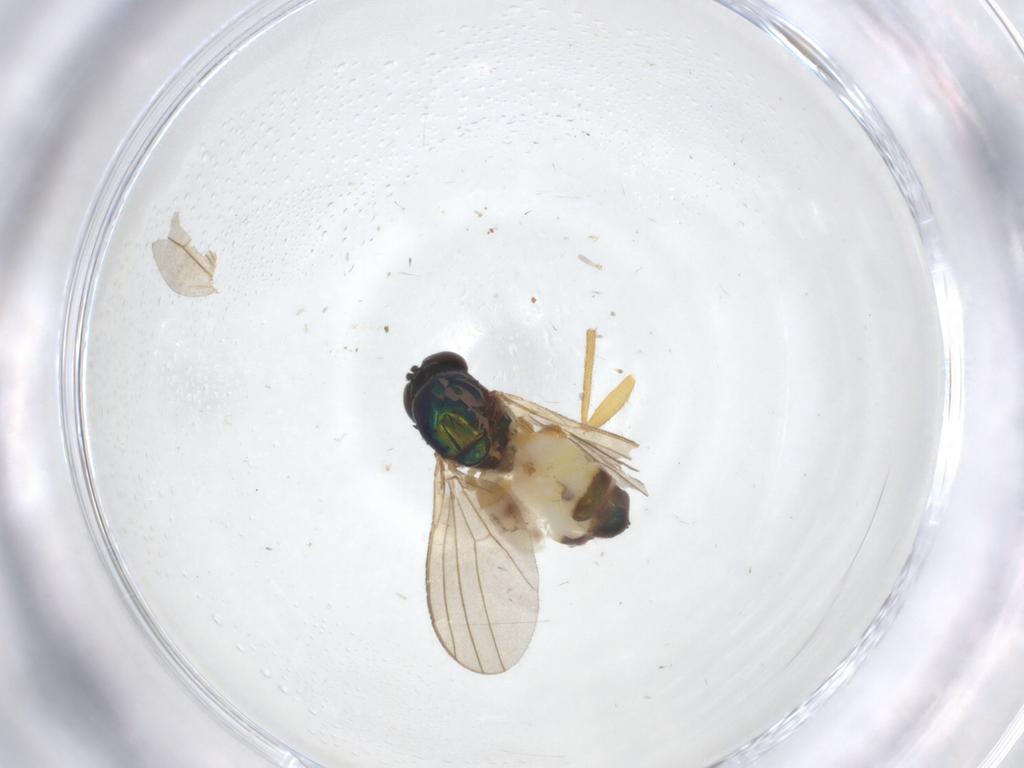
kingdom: Animalia
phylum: Arthropoda
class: Insecta
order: Diptera
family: Dolichopodidae
